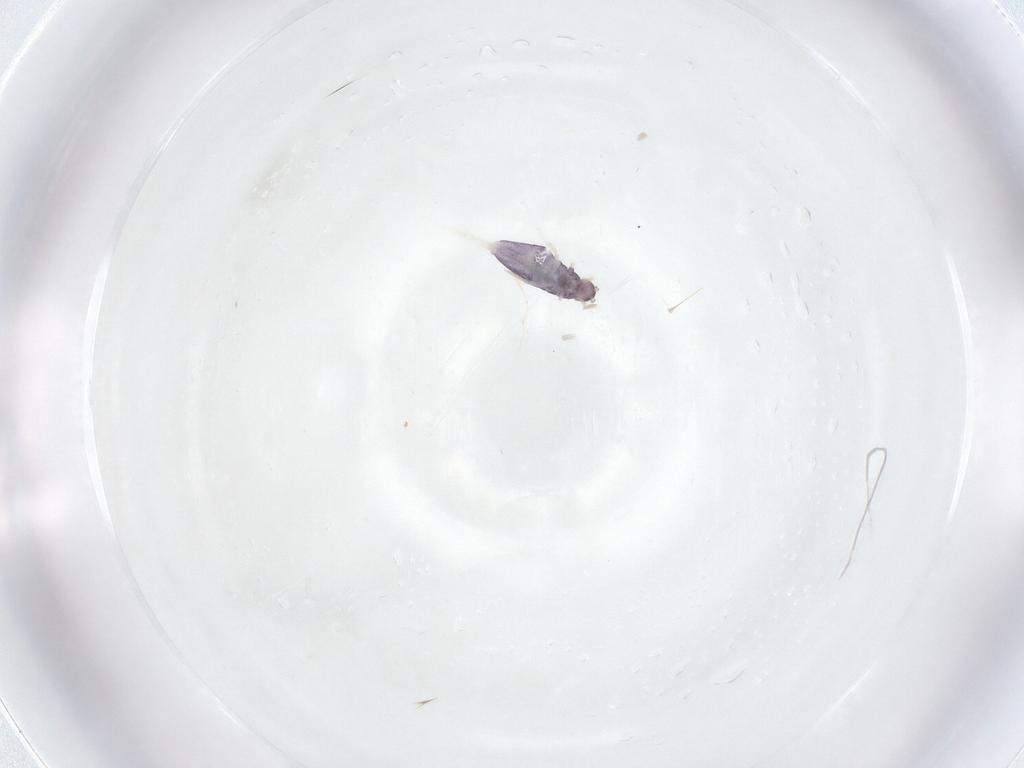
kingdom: Animalia
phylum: Arthropoda
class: Collembola
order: Entomobryomorpha
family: Entomobryidae
